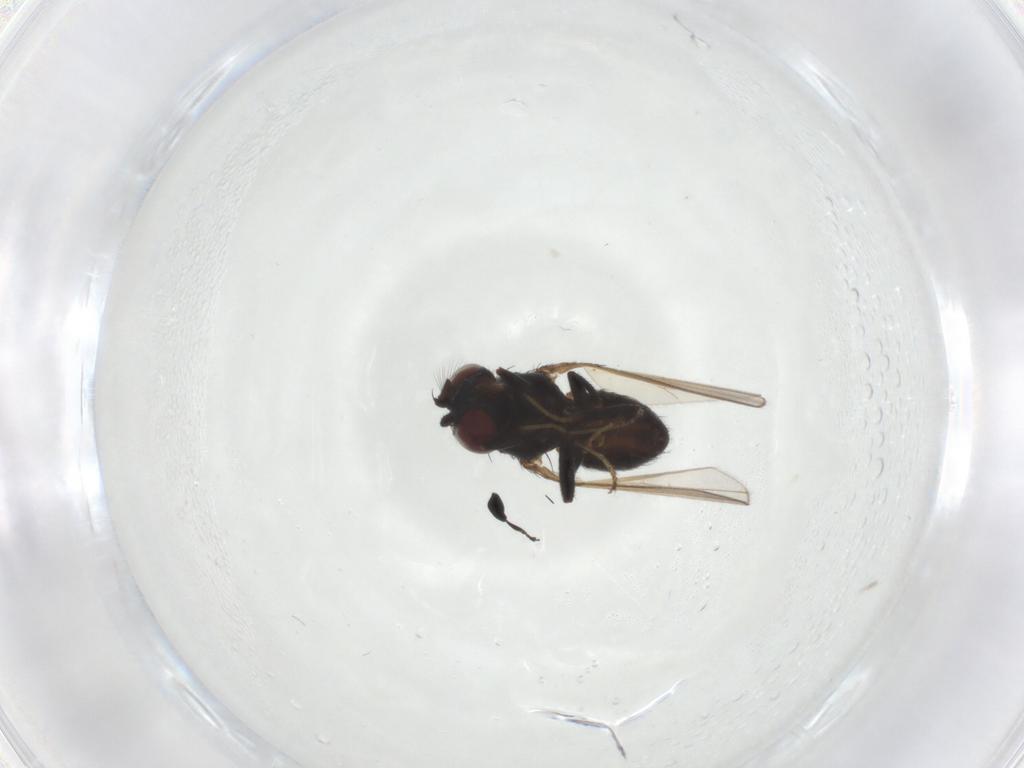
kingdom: Animalia
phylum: Arthropoda
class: Insecta
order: Diptera
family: Ephydridae
